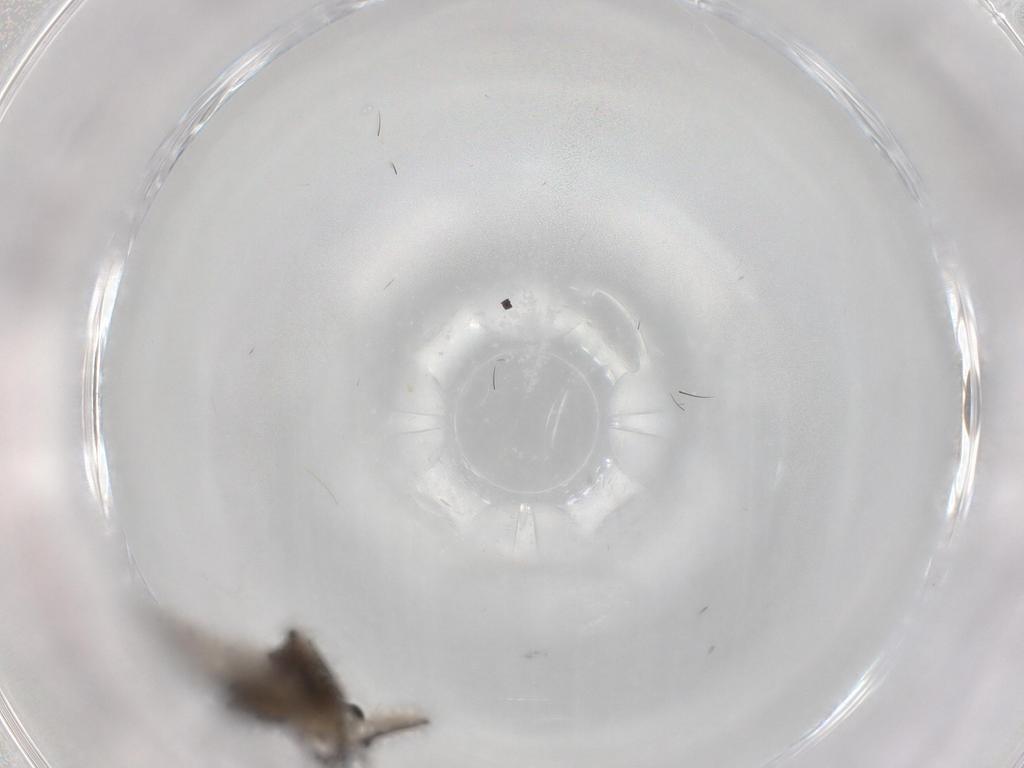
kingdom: Animalia
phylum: Arthropoda
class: Insecta
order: Diptera
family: Sciaridae
